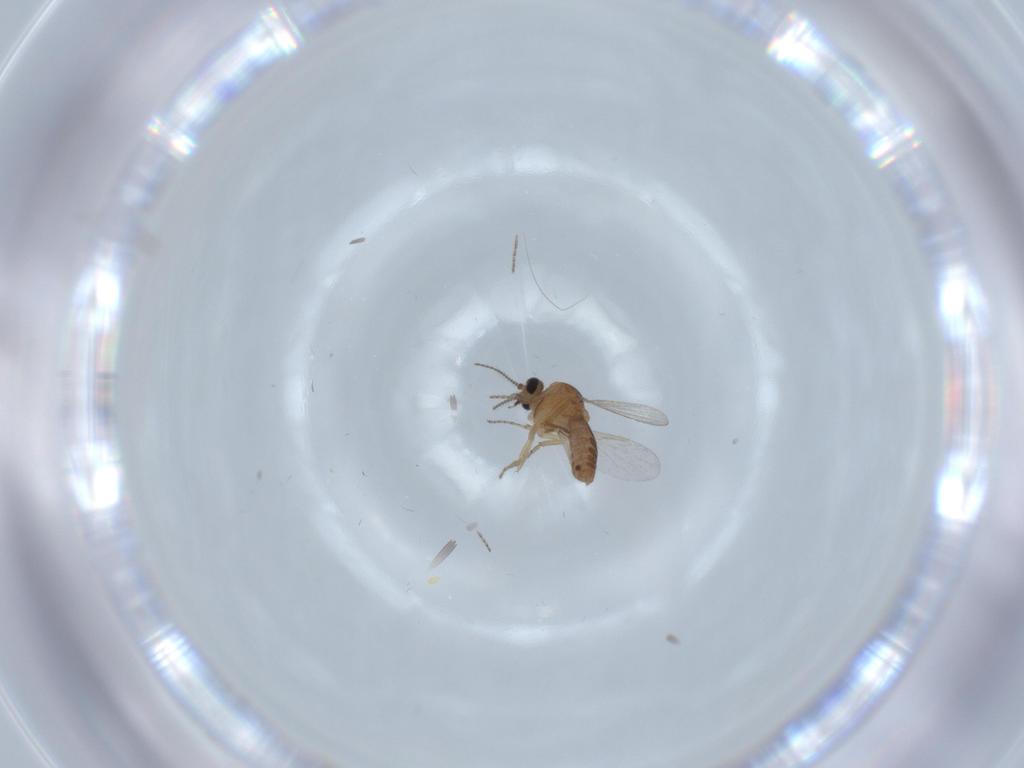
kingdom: Animalia
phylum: Arthropoda
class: Insecta
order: Diptera
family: Ceratopogonidae
